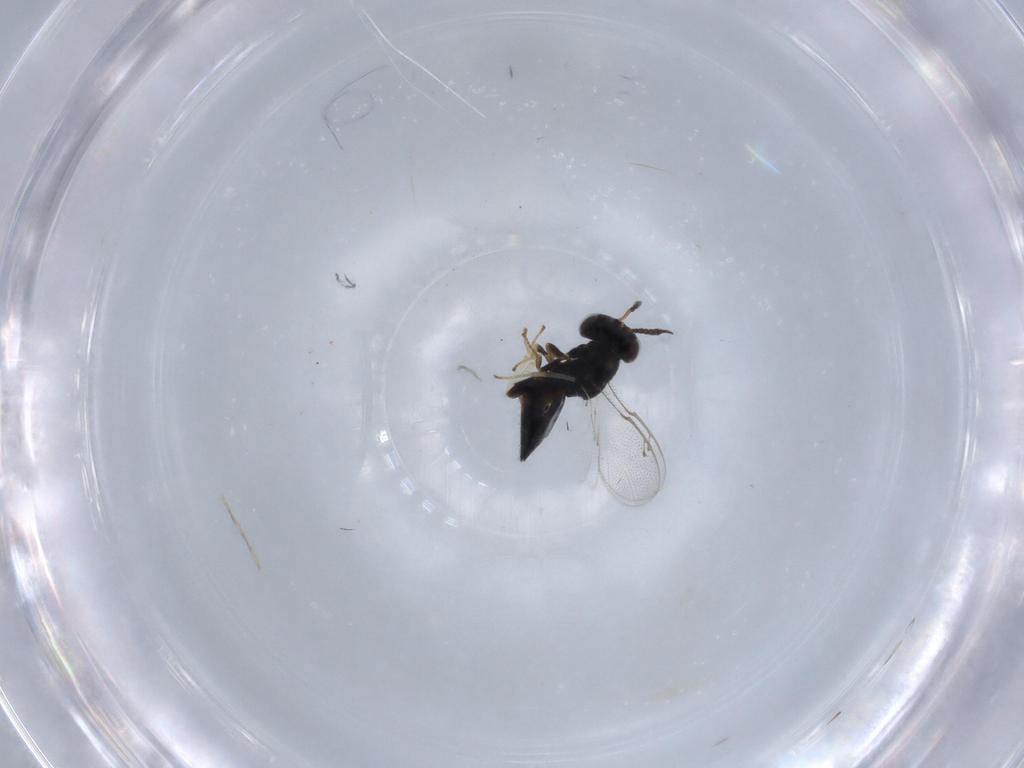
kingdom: Animalia
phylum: Arthropoda
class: Insecta
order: Hymenoptera
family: Pteromalidae
